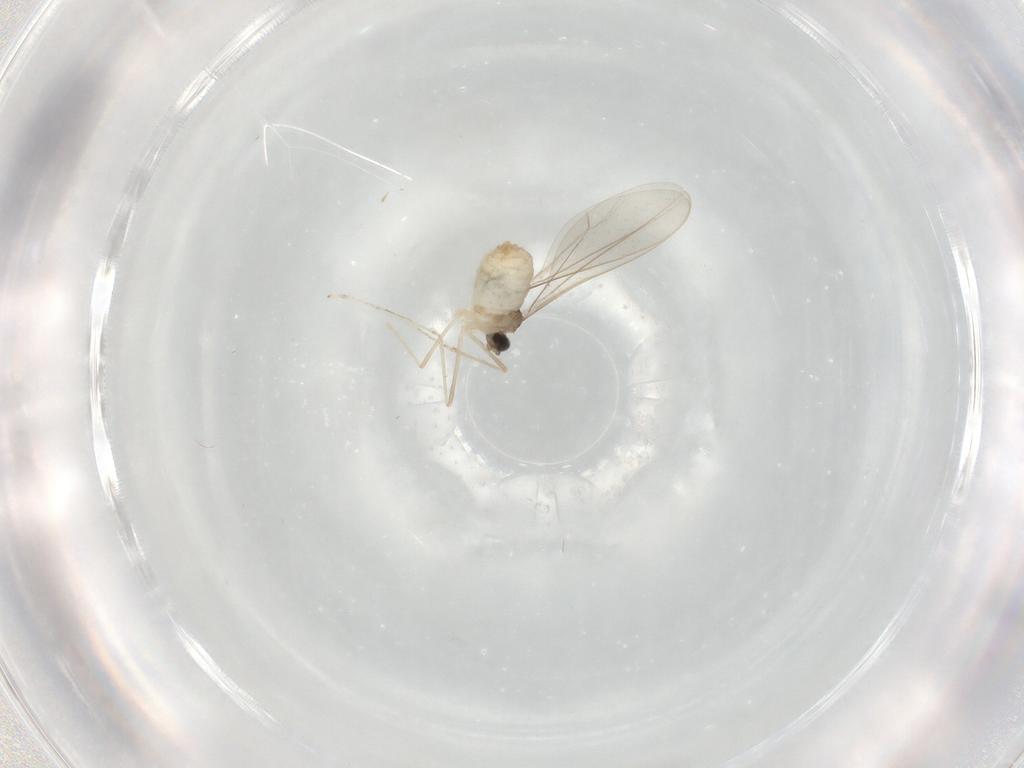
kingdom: Animalia
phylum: Arthropoda
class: Insecta
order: Diptera
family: Cecidomyiidae
